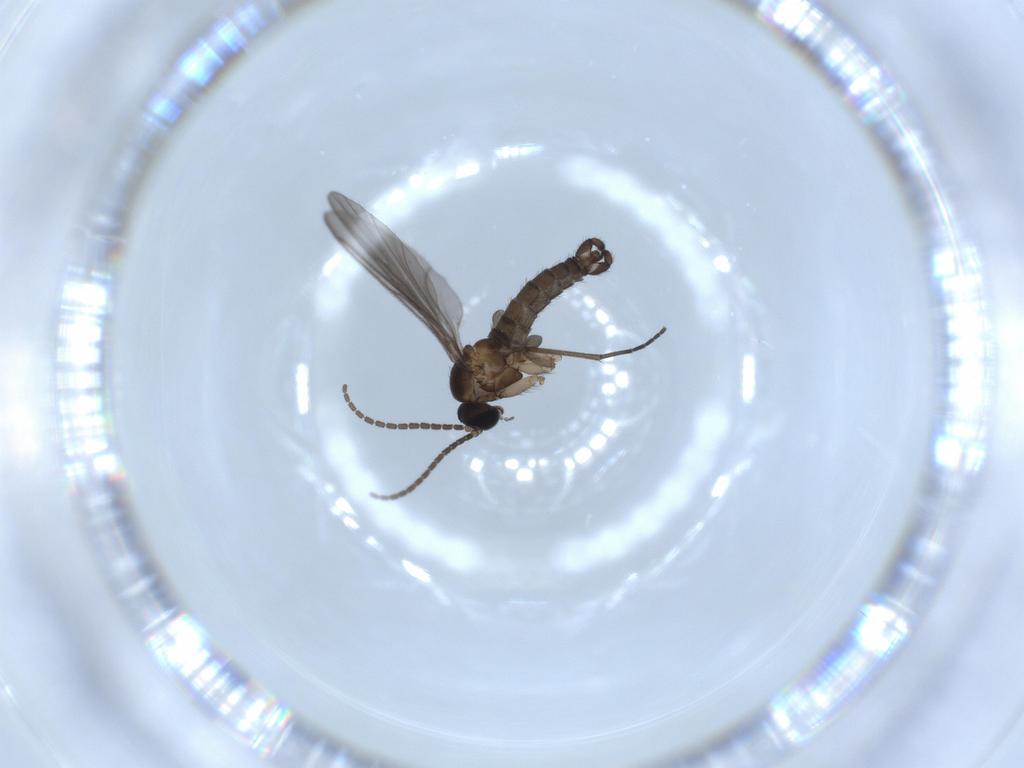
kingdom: Animalia
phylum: Arthropoda
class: Insecta
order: Diptera
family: Sciaridae
